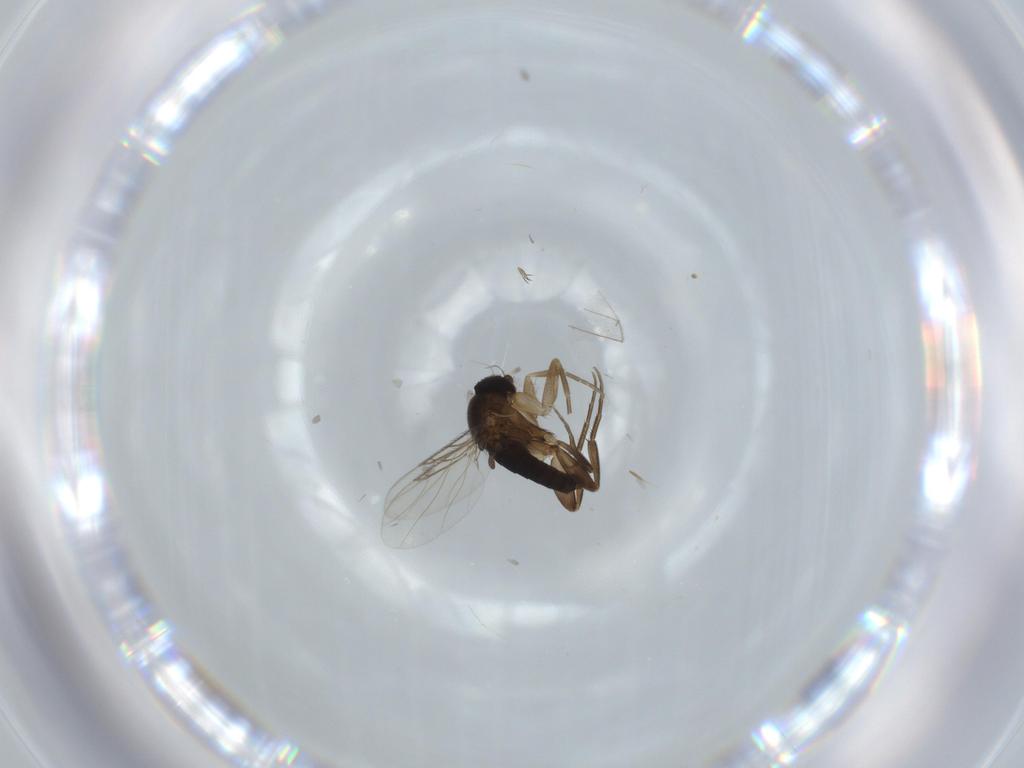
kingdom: Animalia
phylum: Arthropoda
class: Insecta
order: Diptera
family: Phoridae
